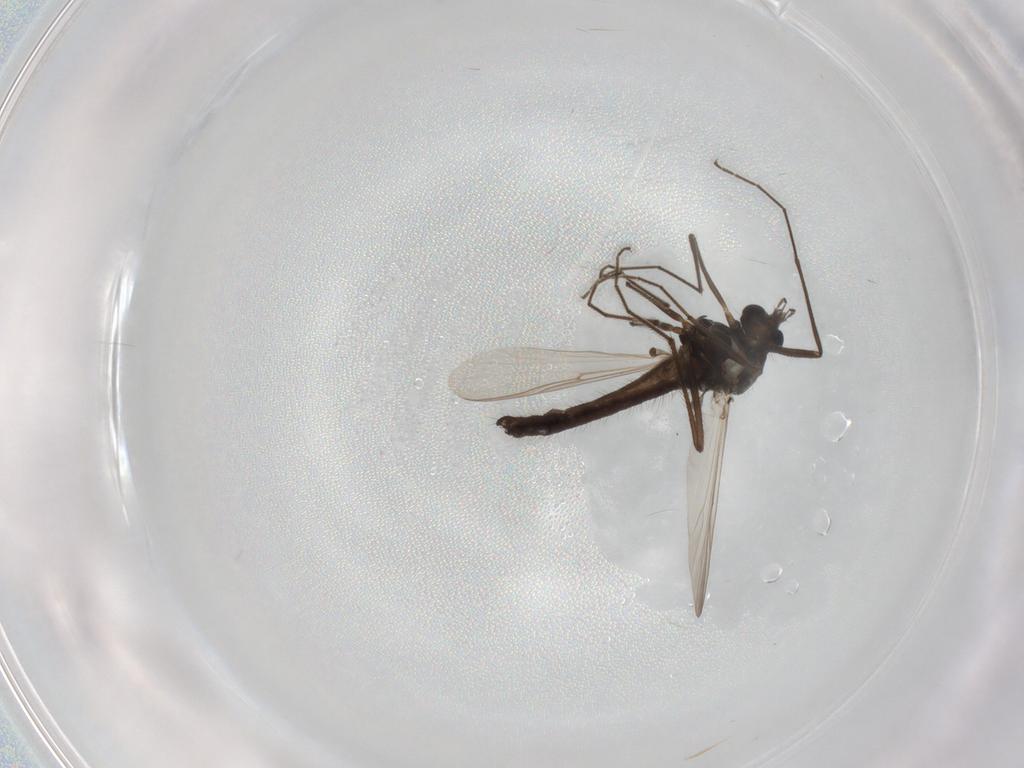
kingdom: Animalia
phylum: Arthropoda
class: Insecta
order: Diptera
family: Chironomidae
